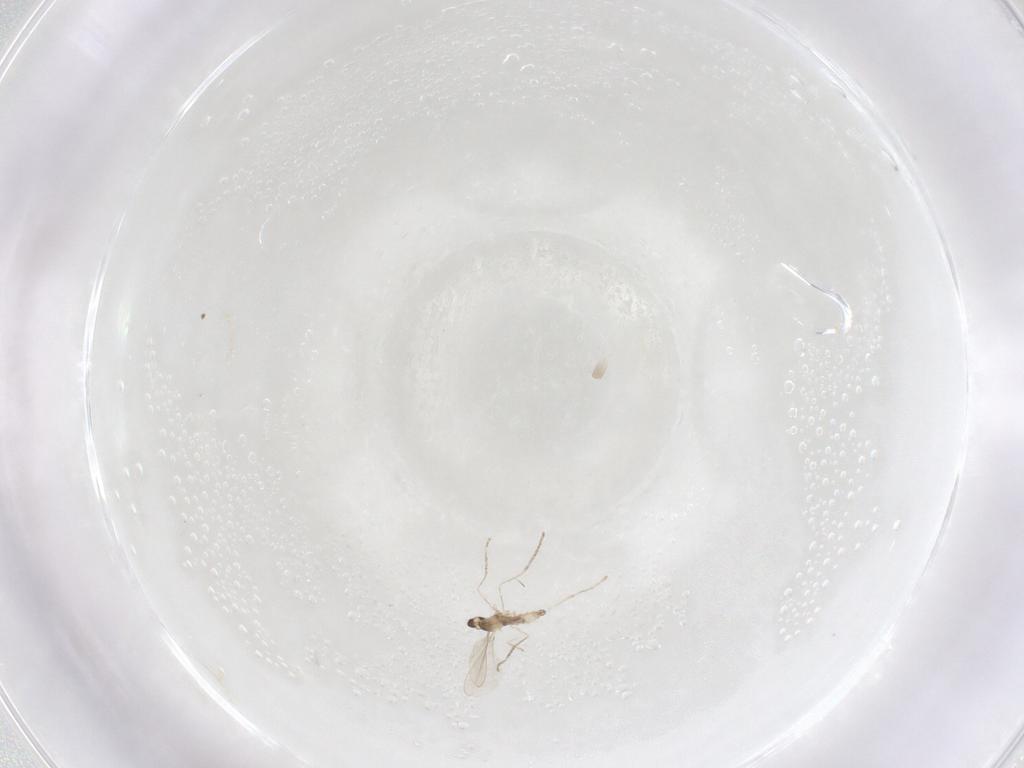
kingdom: Animalia
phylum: Arthropoda
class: Insecta
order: Diptera
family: Cecidomyiidae
